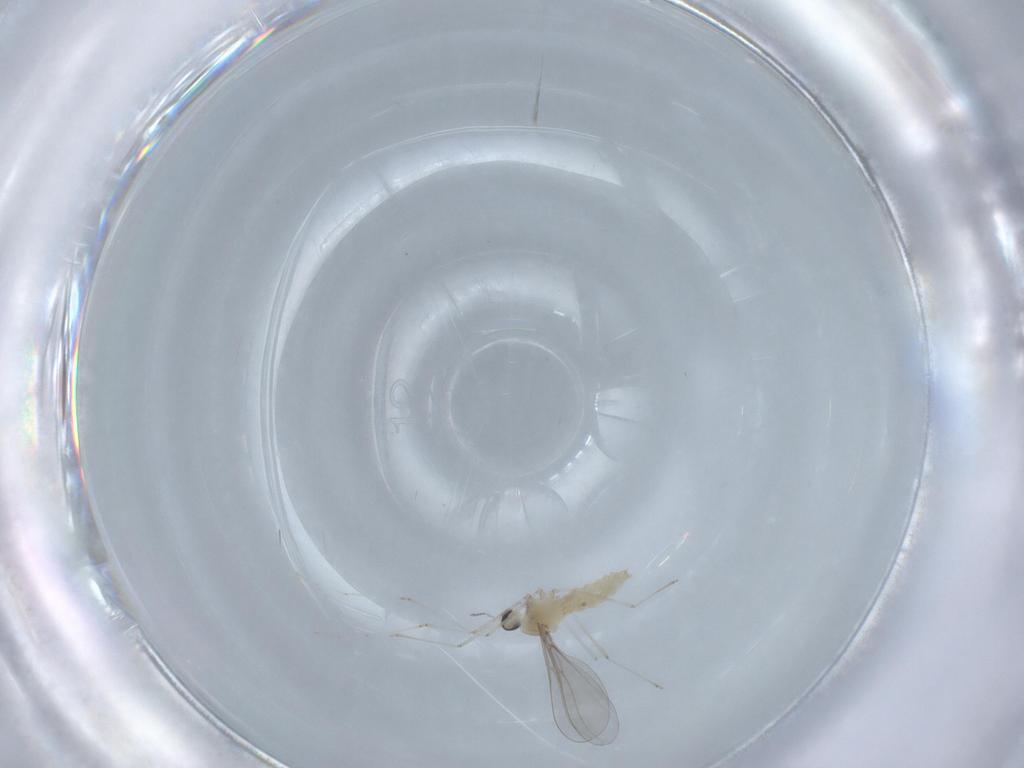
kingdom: Animalia
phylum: Arthropoda
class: Insecta
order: Diptera
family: Cecidomyiidae
